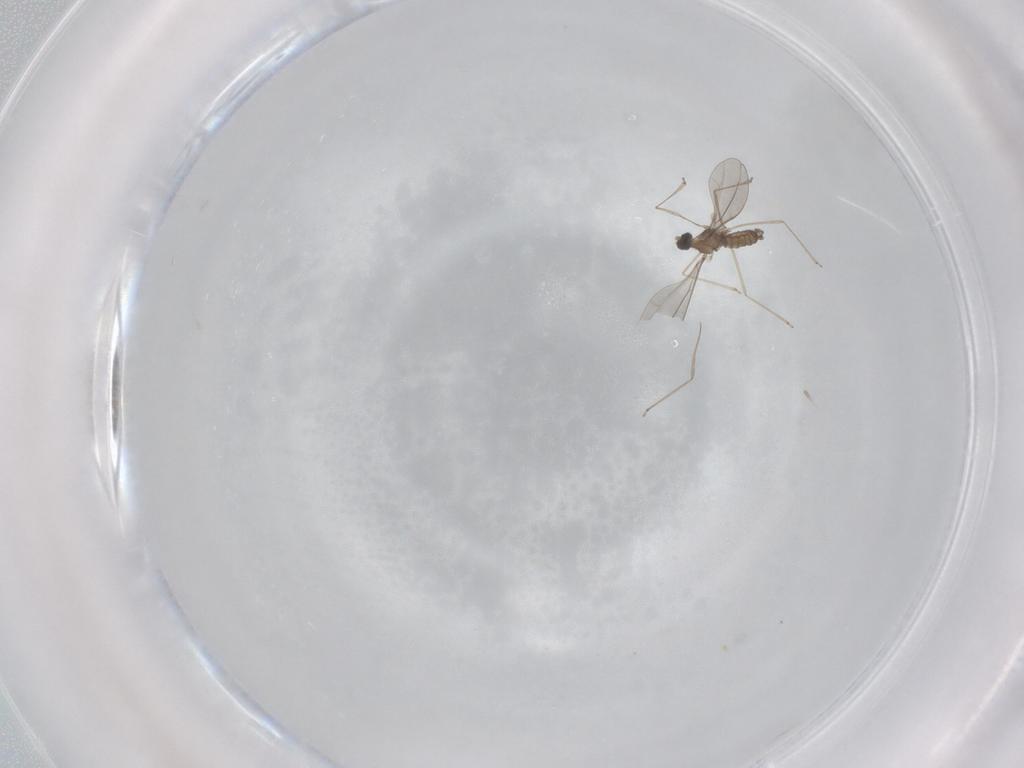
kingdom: Animalia
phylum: Arthropoda
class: Insecta
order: Diptera
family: Cecidomyiidae
